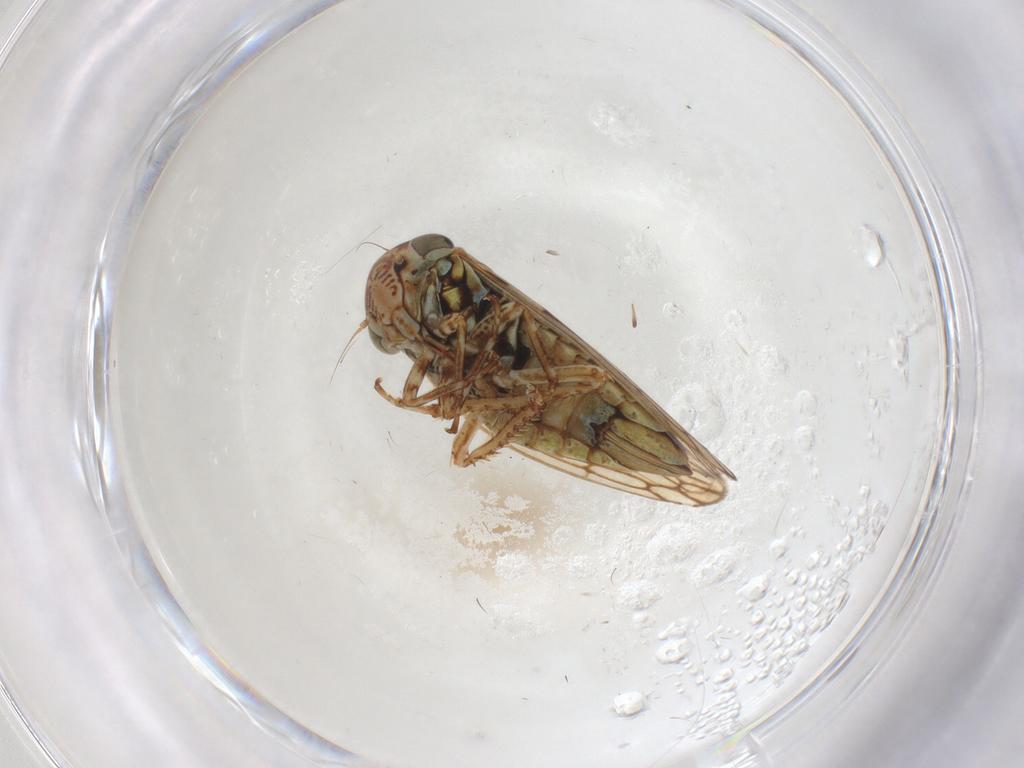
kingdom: Animalia
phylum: Arthropoda
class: Insecta
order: Hemiptera
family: Cicadellidae
